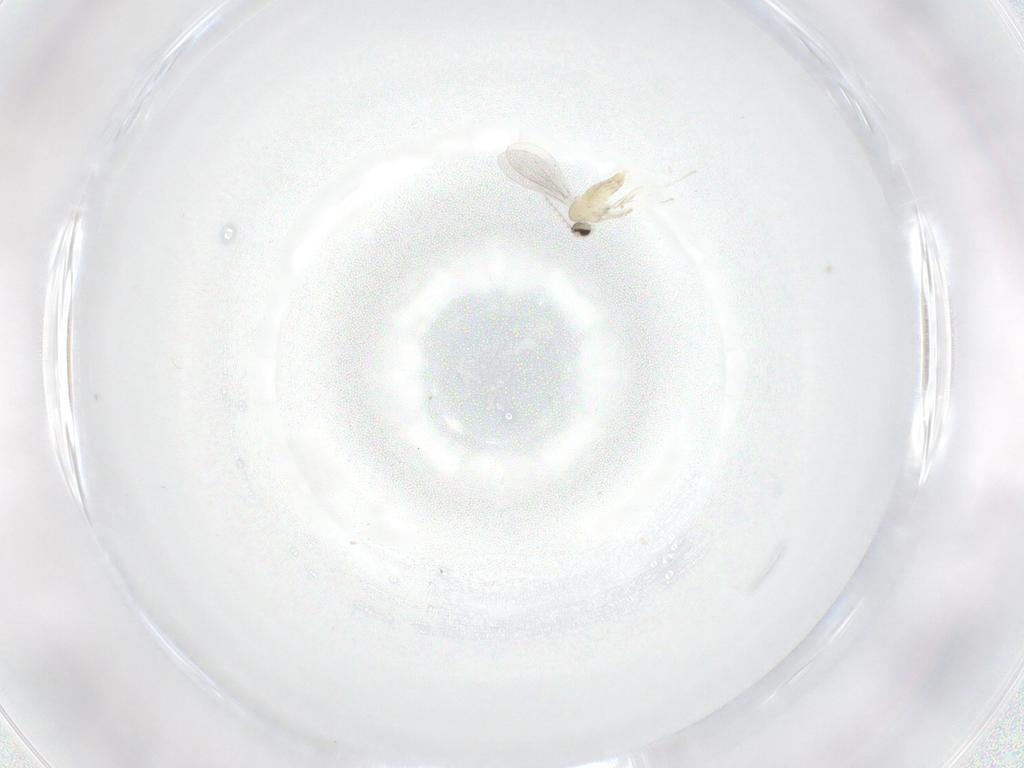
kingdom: Animalia
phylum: Arthropoda
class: Insecta
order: Diptera
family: Cecidomyiidae
